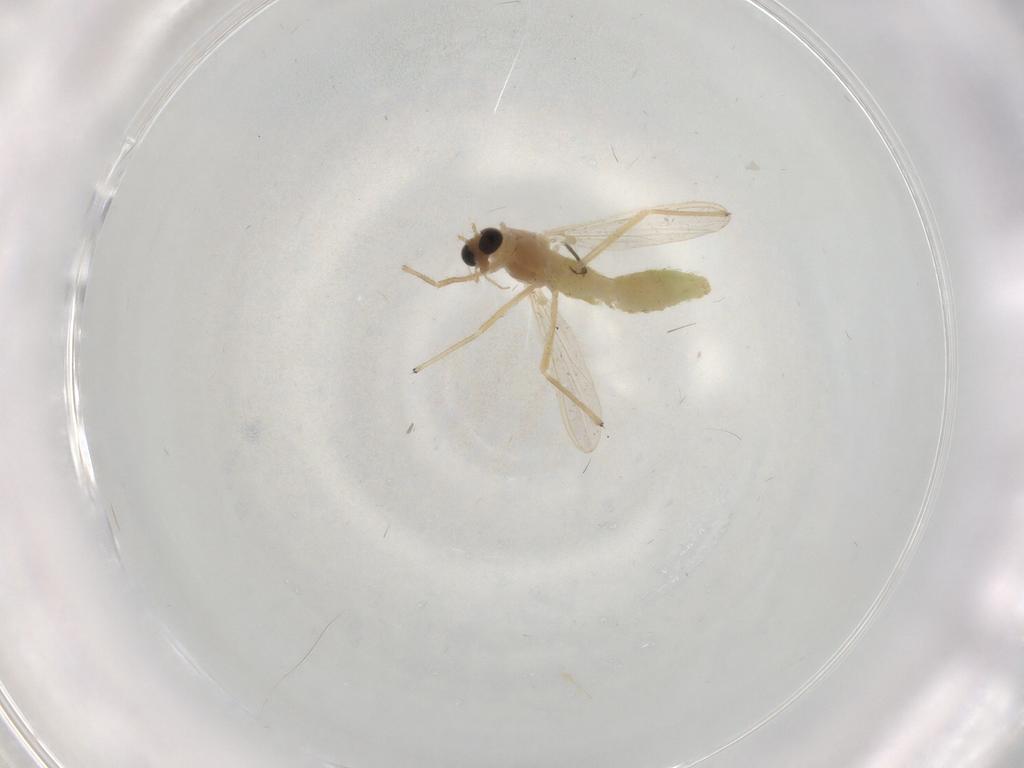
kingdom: Animalia
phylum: Arthropoda
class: Insecta
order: Diptera
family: Chironomidae
